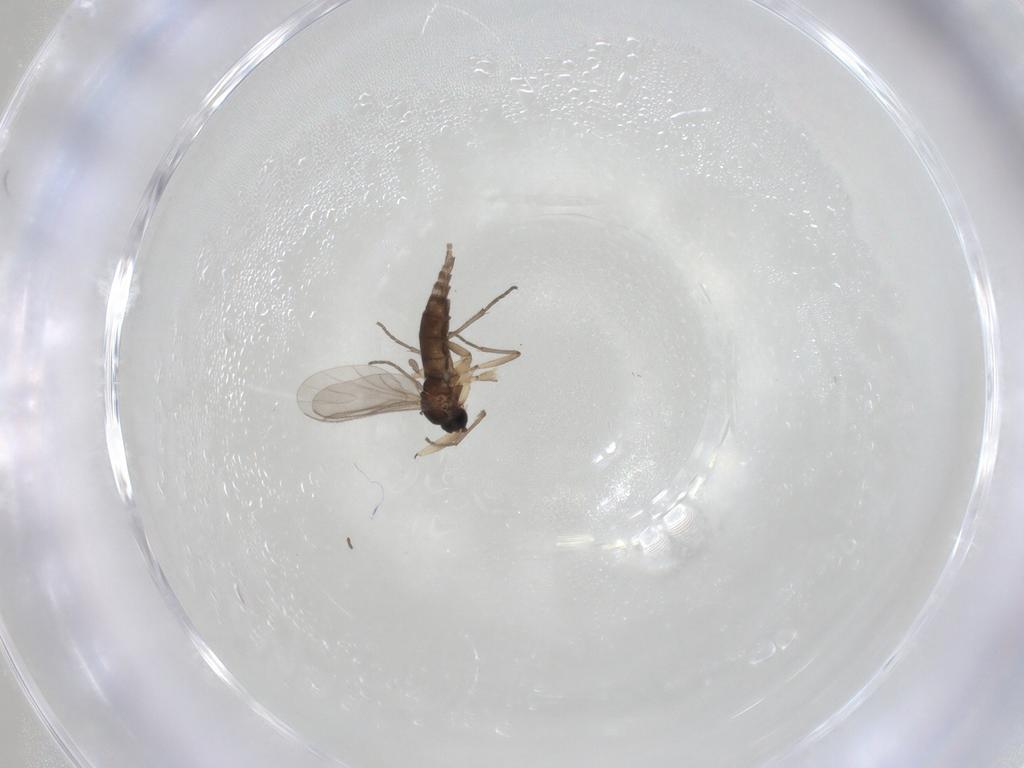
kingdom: Animalia
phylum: Arthropoda
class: Insecta
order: Diptera
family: Sciaridae
